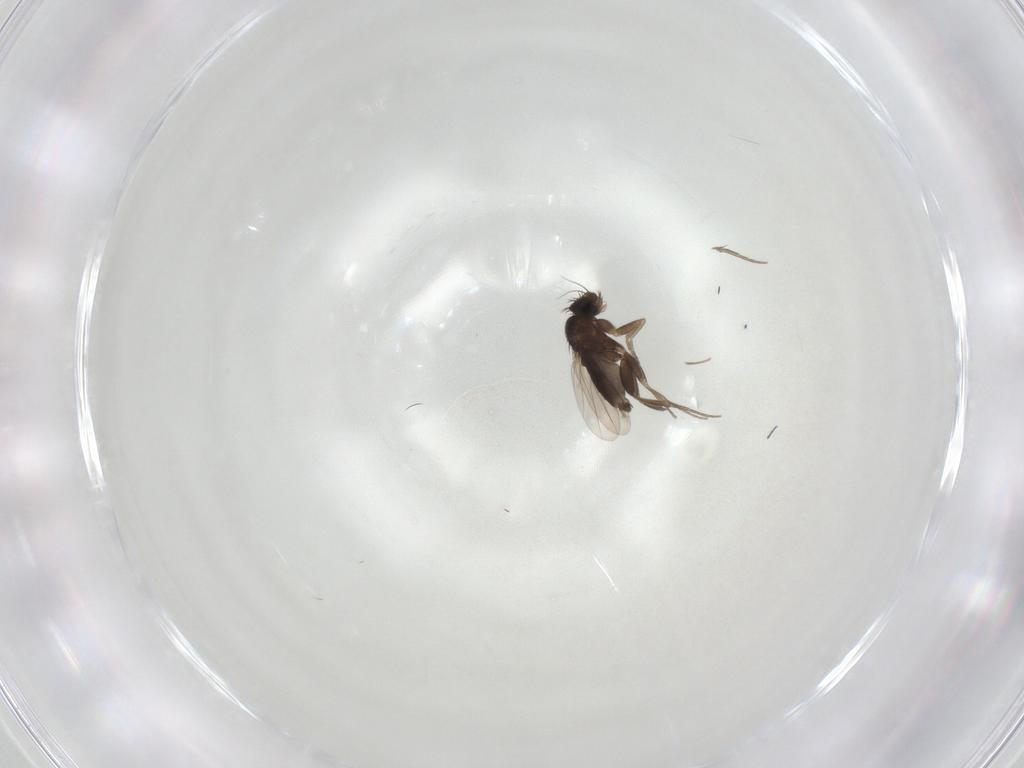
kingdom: Animalia
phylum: Arthropoda
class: Insecta
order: Diptera
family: Phoridae
